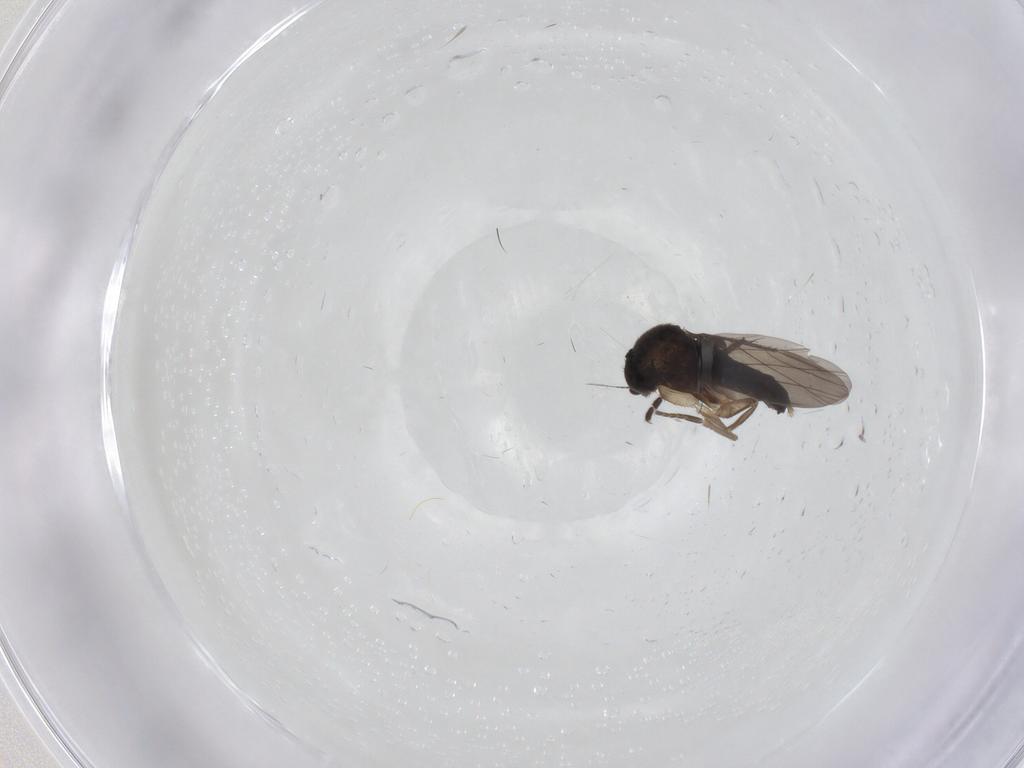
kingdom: Animalia
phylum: Arthropoda
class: Insecta
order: Diptera
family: Phoridae
